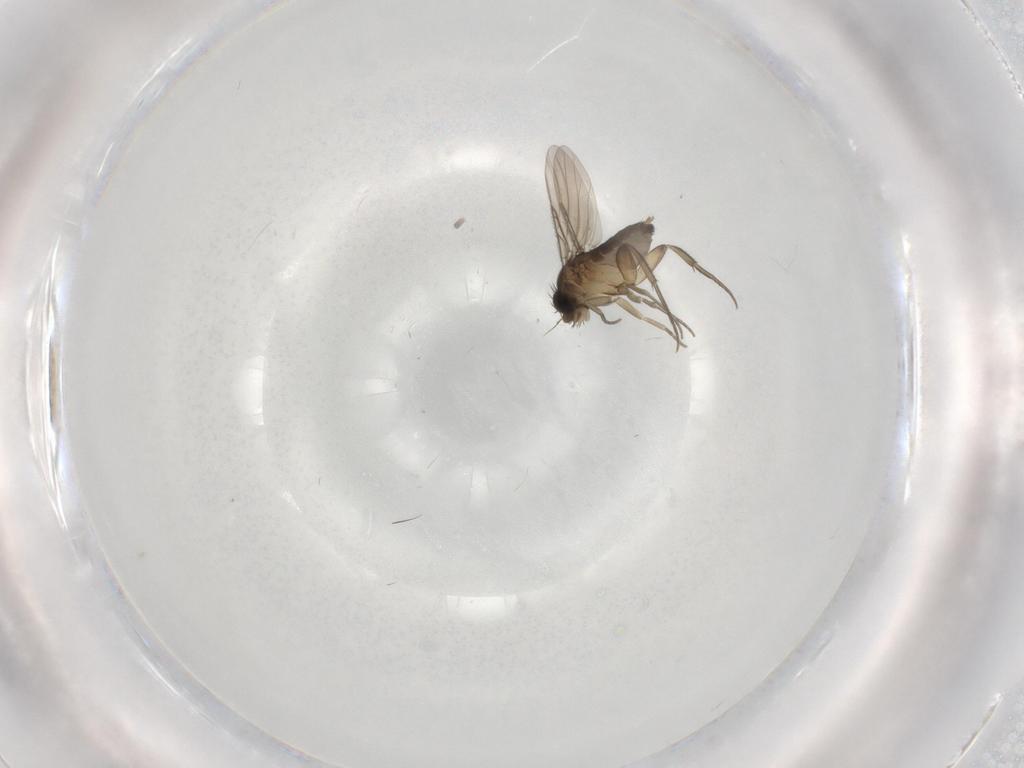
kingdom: Animalia
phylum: Arthropoda
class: Insecta
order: Diptera
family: Phoridae
